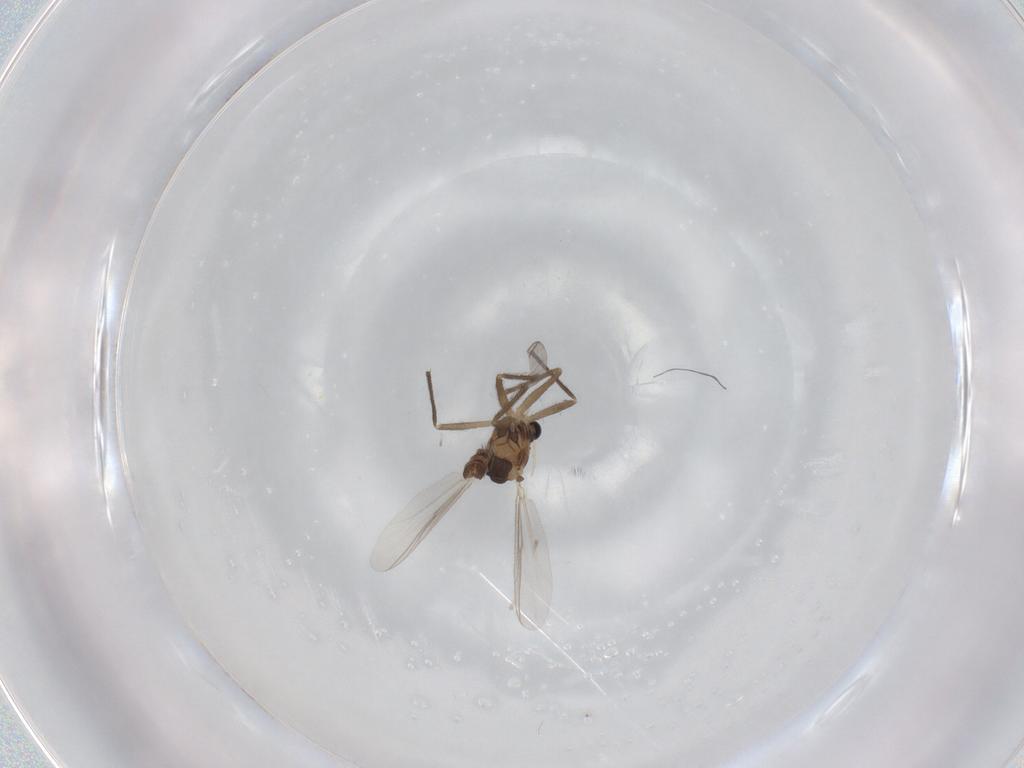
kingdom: Animalia
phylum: Arthropoda
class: Insecta
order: Diptera
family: Chironomidae
